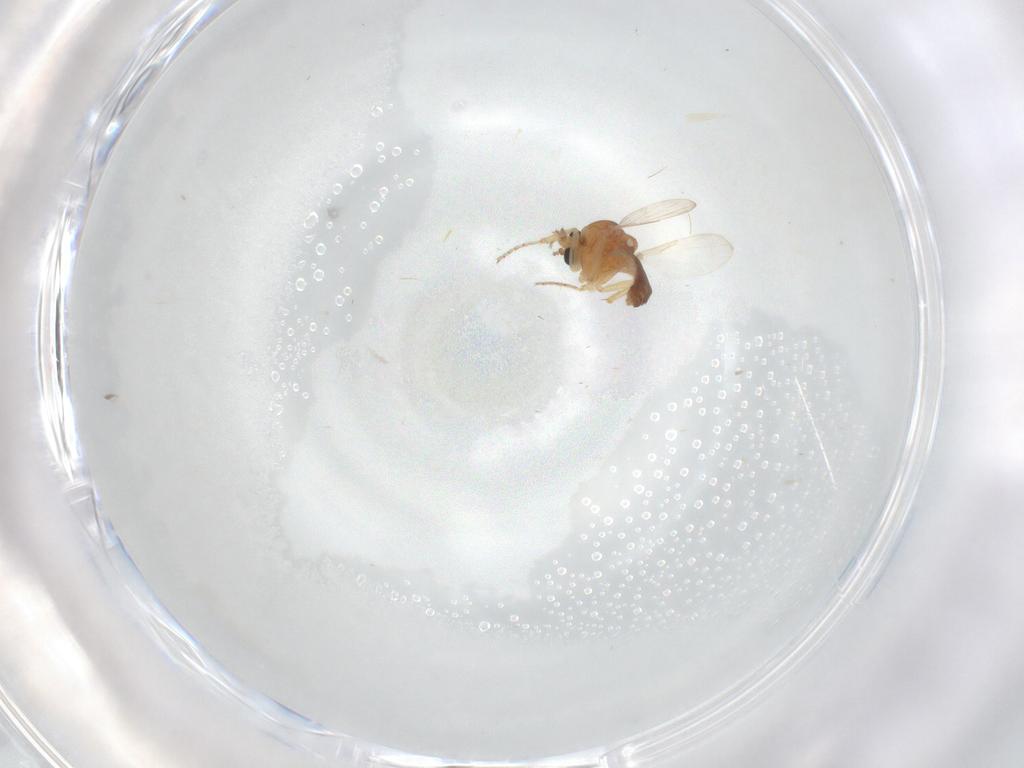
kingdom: Animalia
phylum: Arthropoda
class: Insecta
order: Diptera
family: Ceratopogonidae
